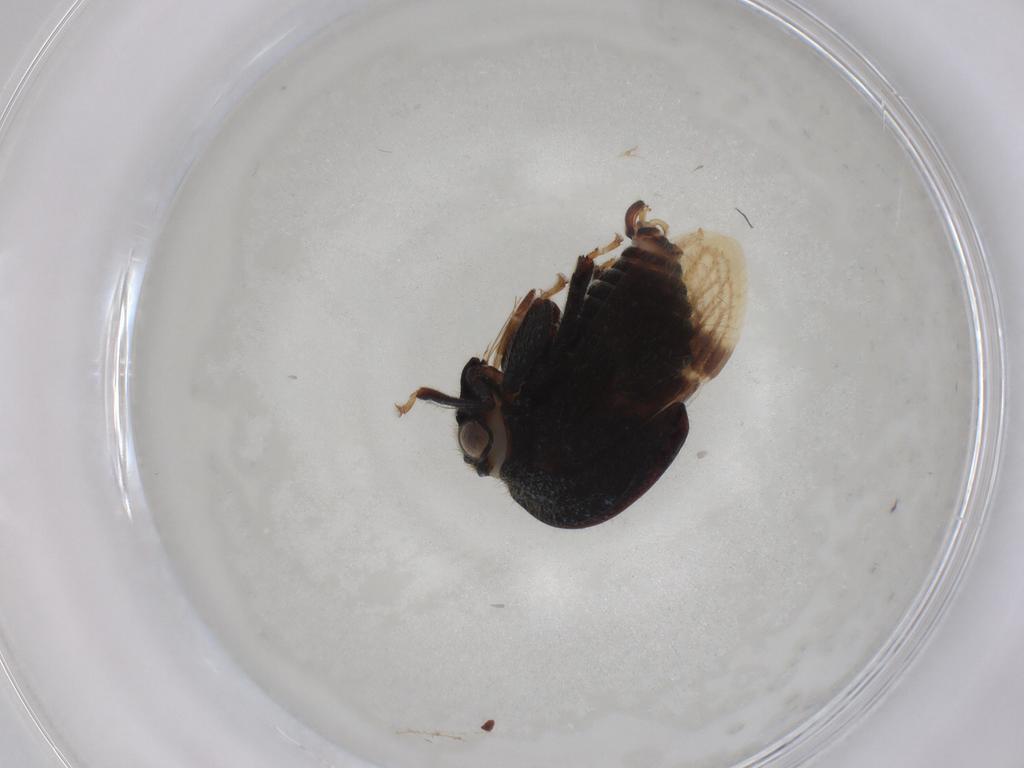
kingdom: Animalia
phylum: Arthropoda
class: Insecta
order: Hemiptera
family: Membracidae
